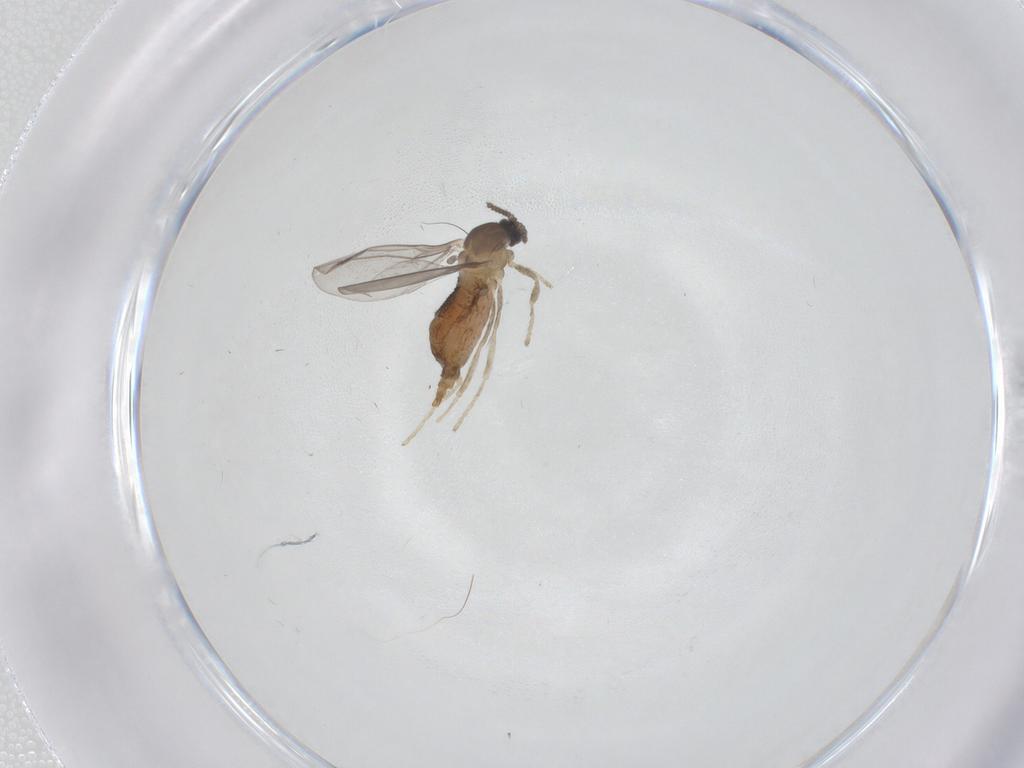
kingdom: Animalia
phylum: Arthropoda
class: Insecta
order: Diptera
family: Cecidomyiidae
